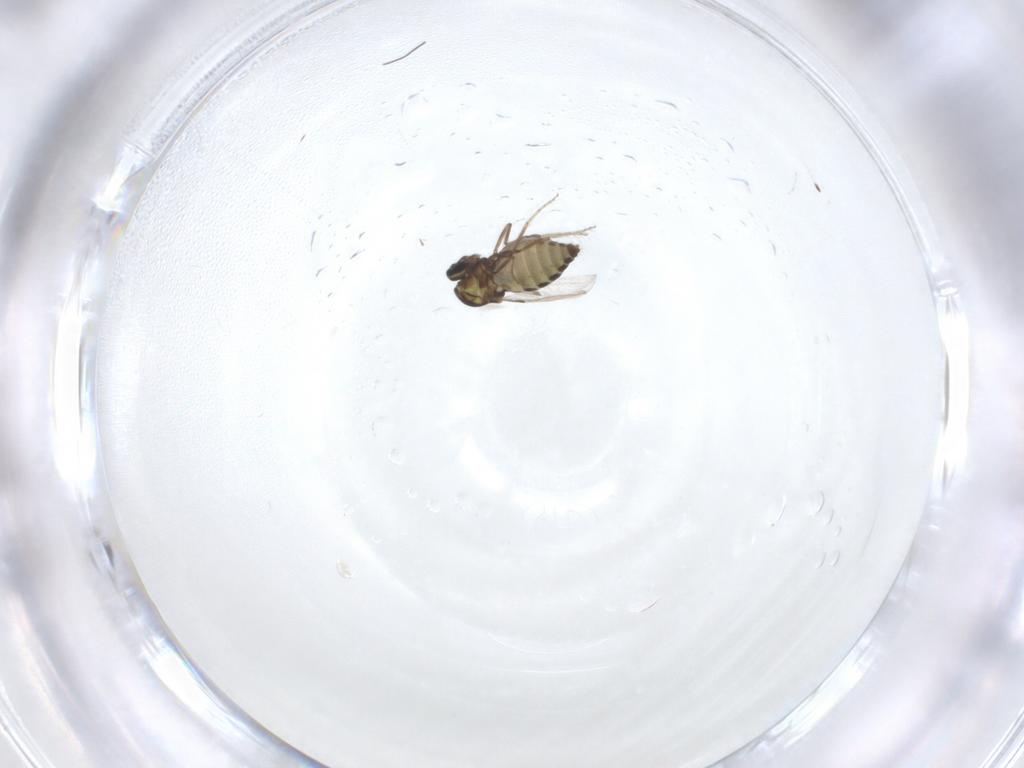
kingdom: Animalia
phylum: Arthropoda
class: Insecta
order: Diptera
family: Ceratopogonidae
